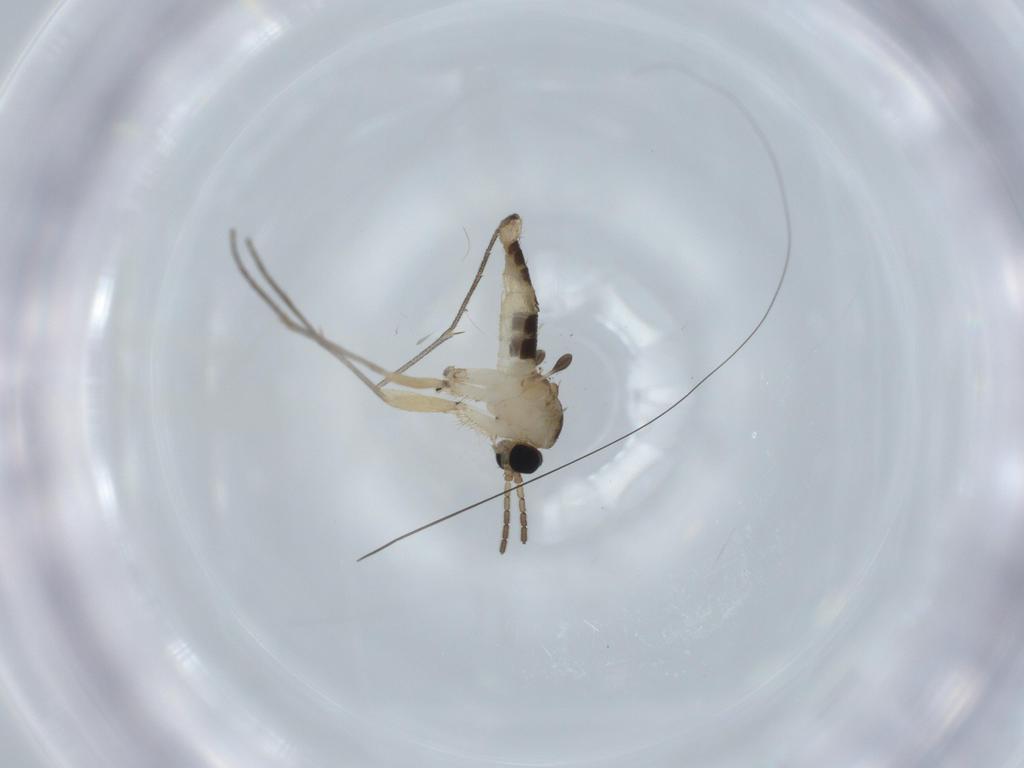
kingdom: Animalia
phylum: Arthropoda
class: Insecta
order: Diptera
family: Sciaridae
